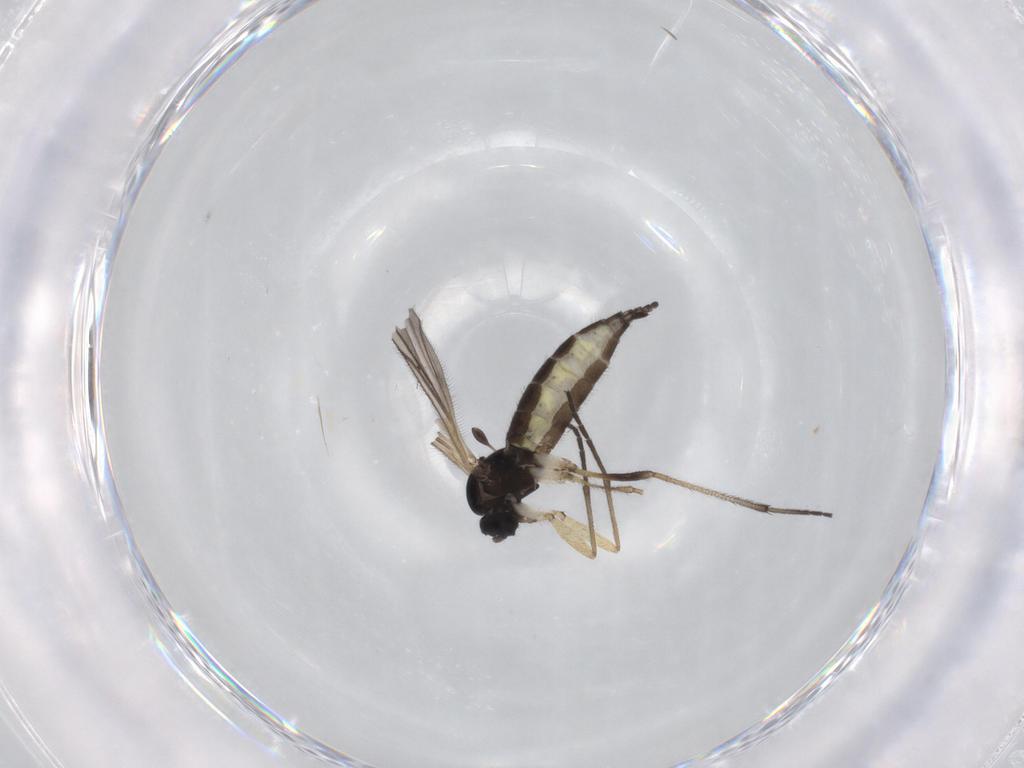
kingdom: Animalia
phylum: Arthropoda
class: Insecta
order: Diptera
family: Sciaridae
